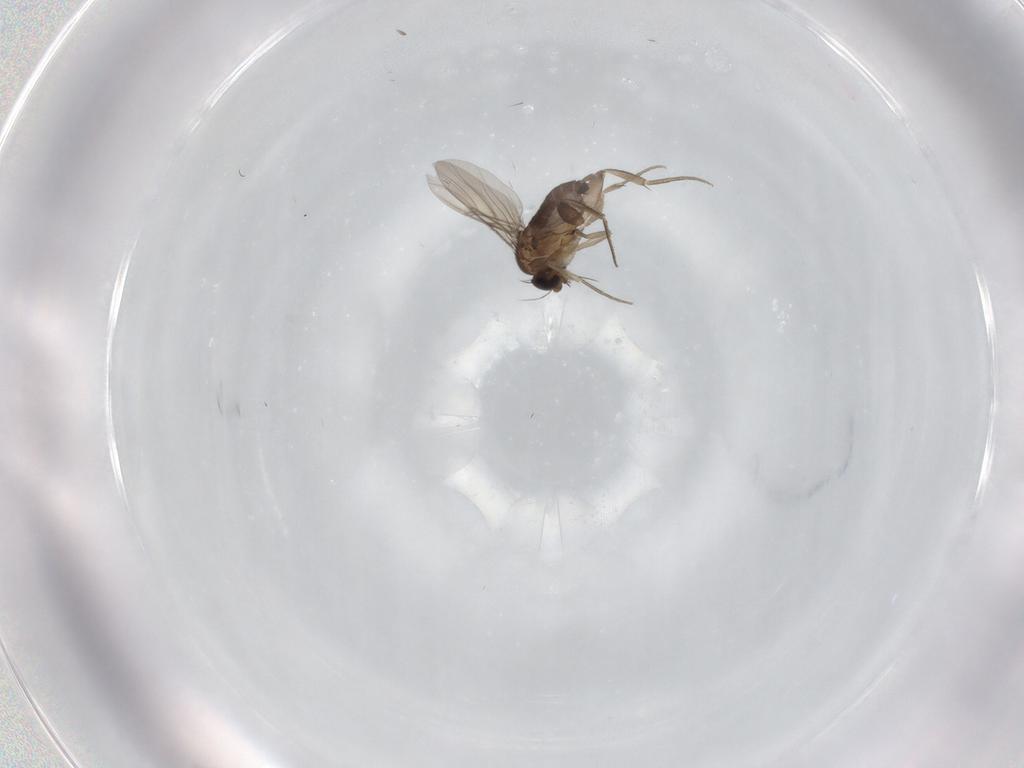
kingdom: Animalia
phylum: Arthropoda
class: Insecta
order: Diptera
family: Phoridae
